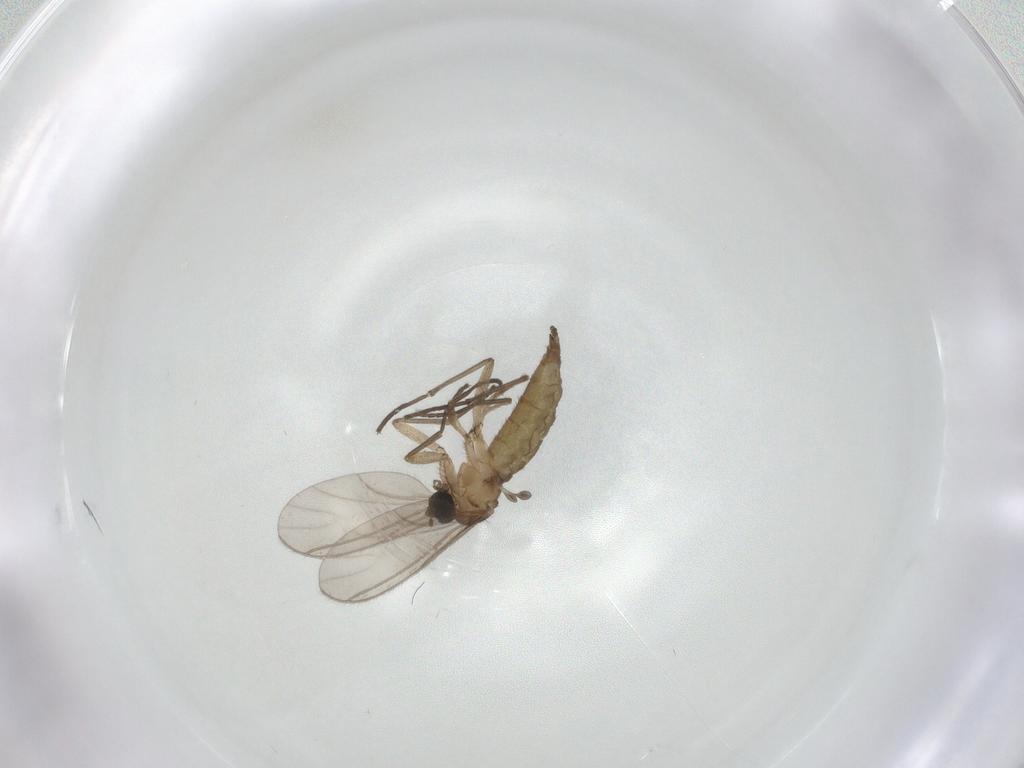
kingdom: Animalia
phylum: Arthropoda
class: Insecta
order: Diptera
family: Sciaridae
